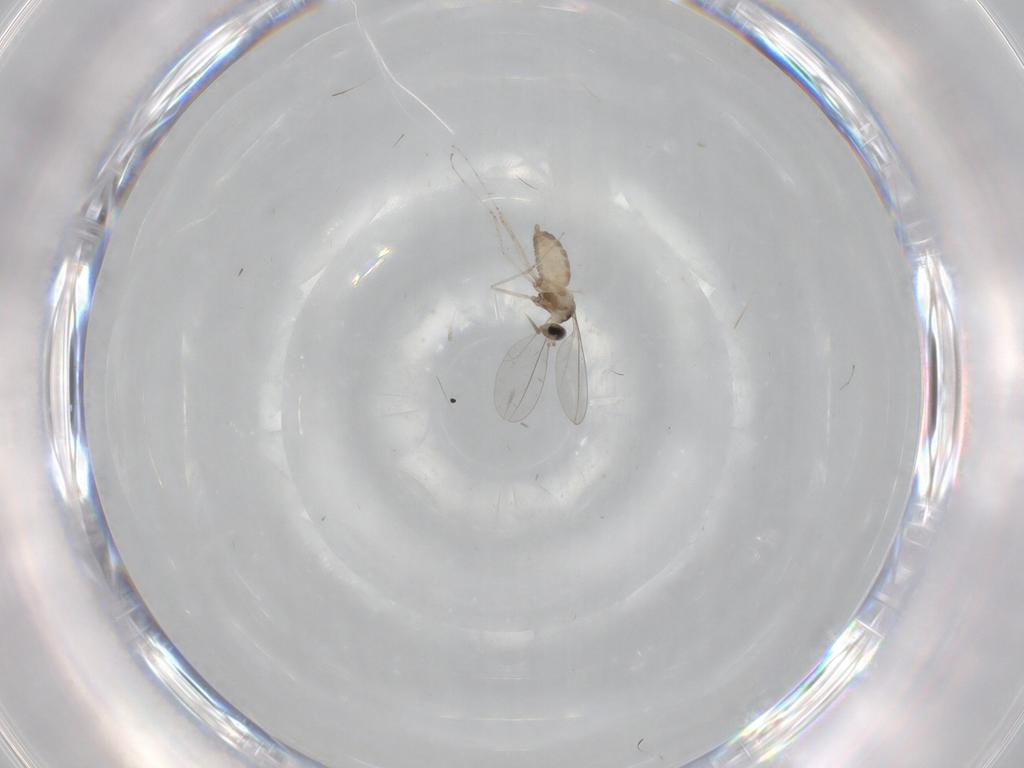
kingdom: Animalia
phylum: Arthropoda
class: Insecta
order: Diptera
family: Cecidomyiidae
